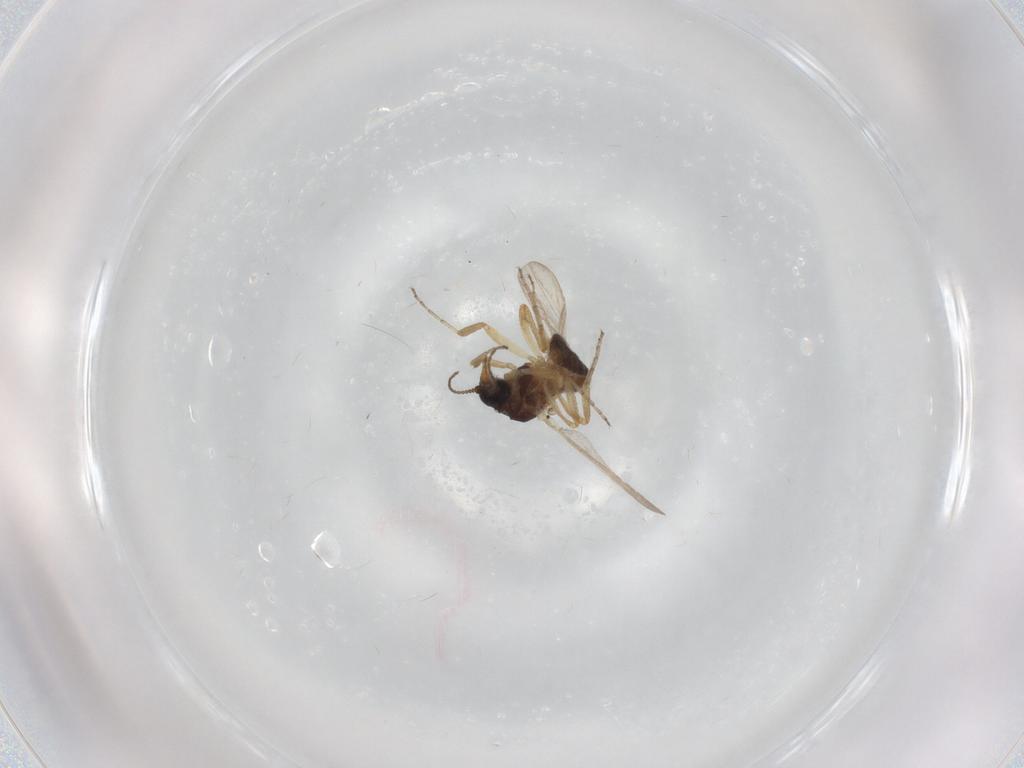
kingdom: Animalia
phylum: Arthropoda
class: Insecta
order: Diptera
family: Ceratopogonidae
